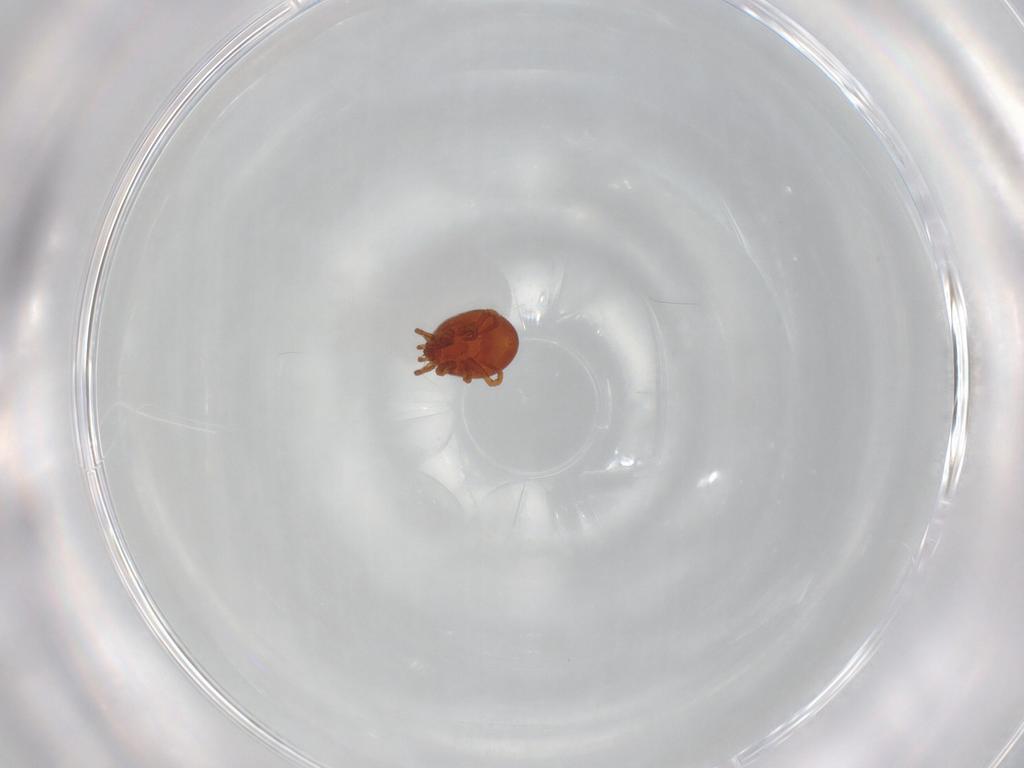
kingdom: Animalia
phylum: Arthropoda
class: Arachnida
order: Mesostigmata
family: Parasitidae
